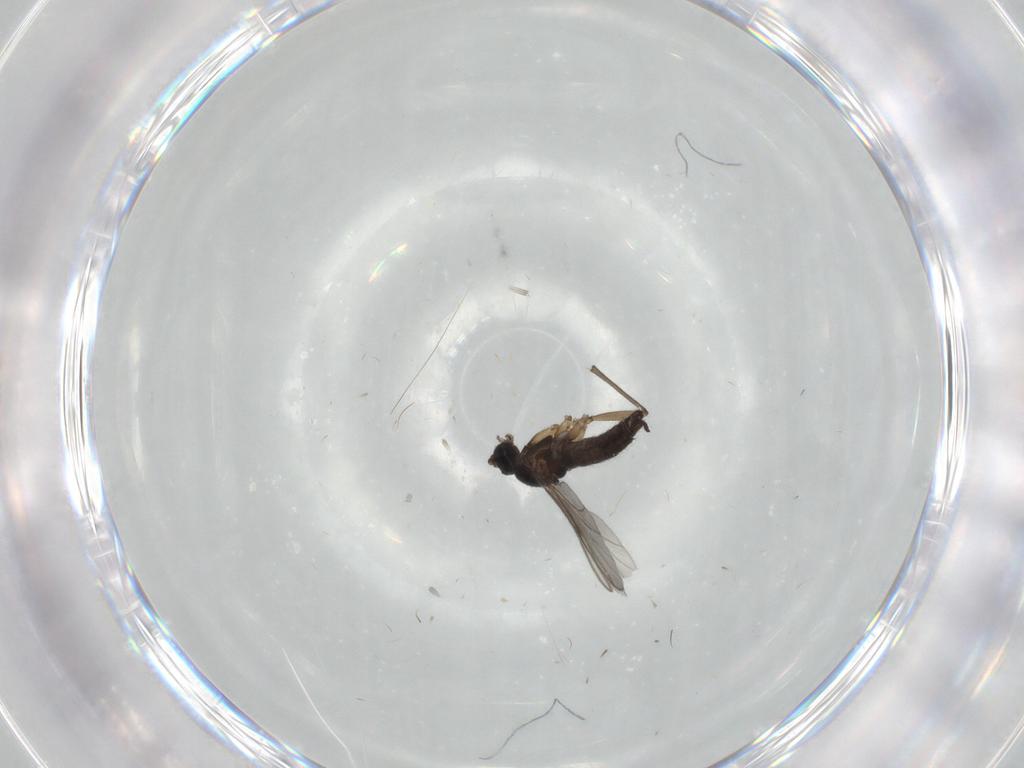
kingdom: Animalia
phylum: Arthropoda
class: Insecta
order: Diptera
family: Sciaridae
